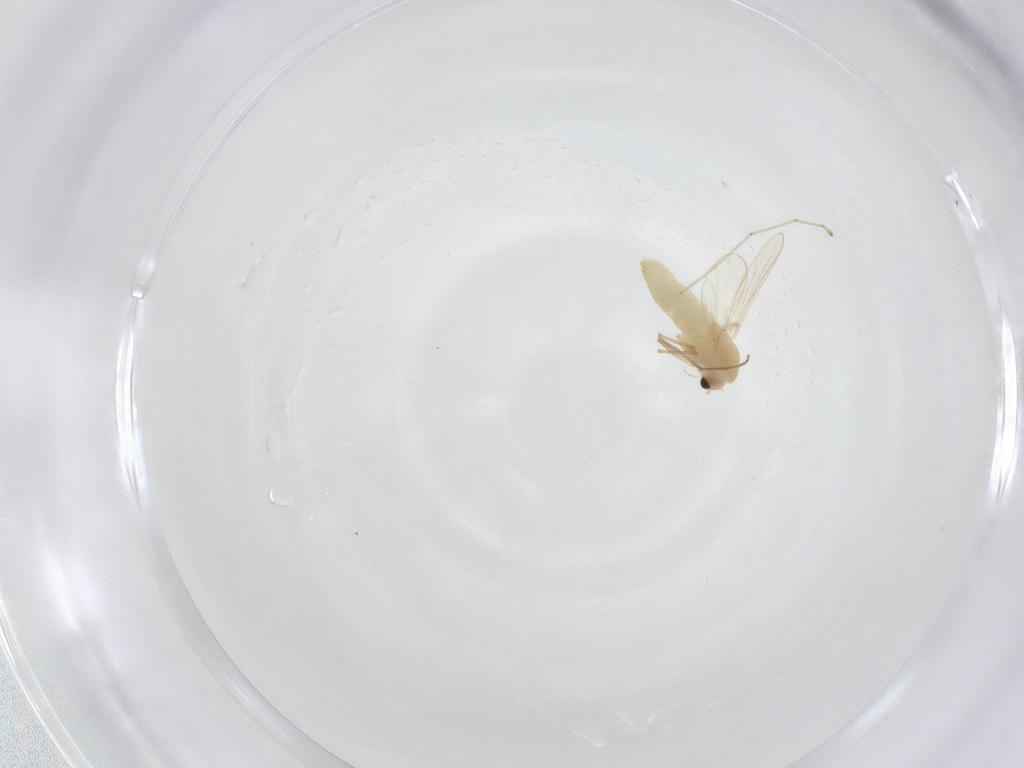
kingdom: Animalia
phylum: Arthropoda
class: Insecta
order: Diptera
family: Cecidomyiidae
